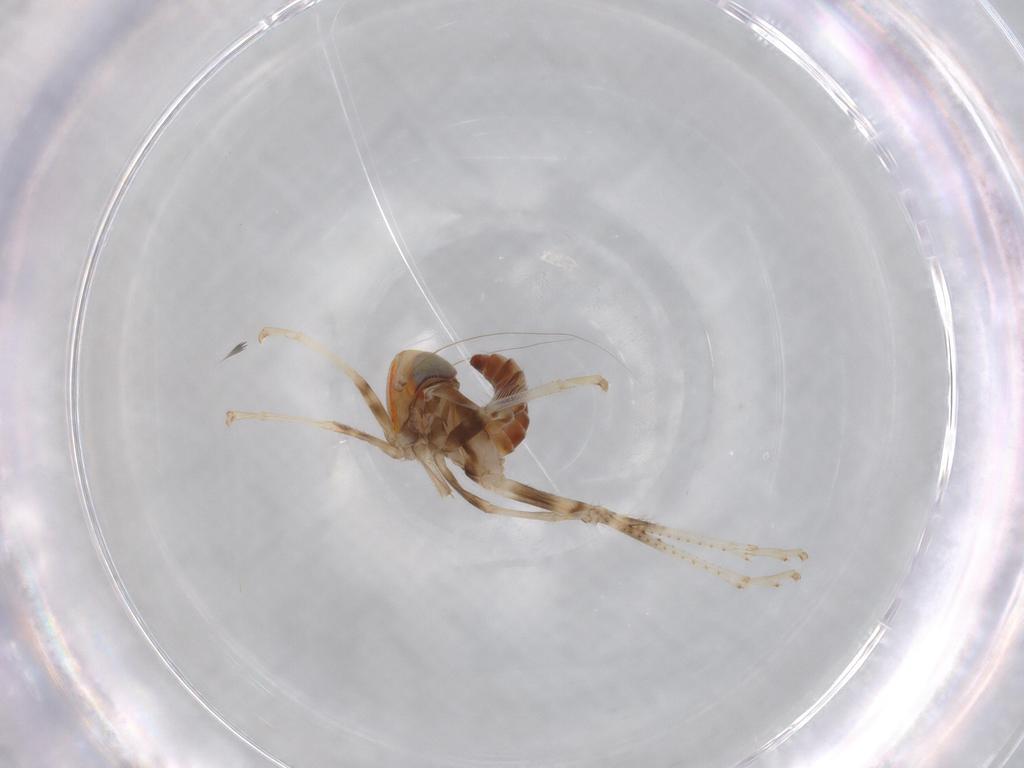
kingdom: Animalia
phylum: Arthropoda
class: Insecta
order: Hemiptera
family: Cicadellidae
